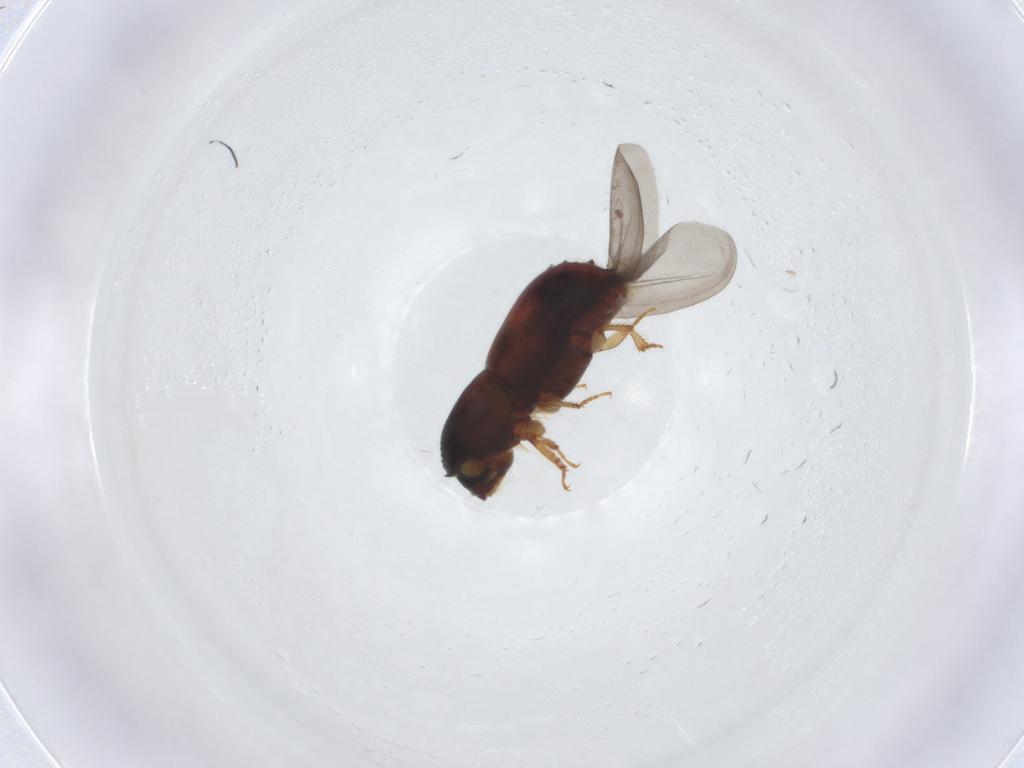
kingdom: Animalia
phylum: Arthropoda
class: Insecta
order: Coleoptera
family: Curculionidae
